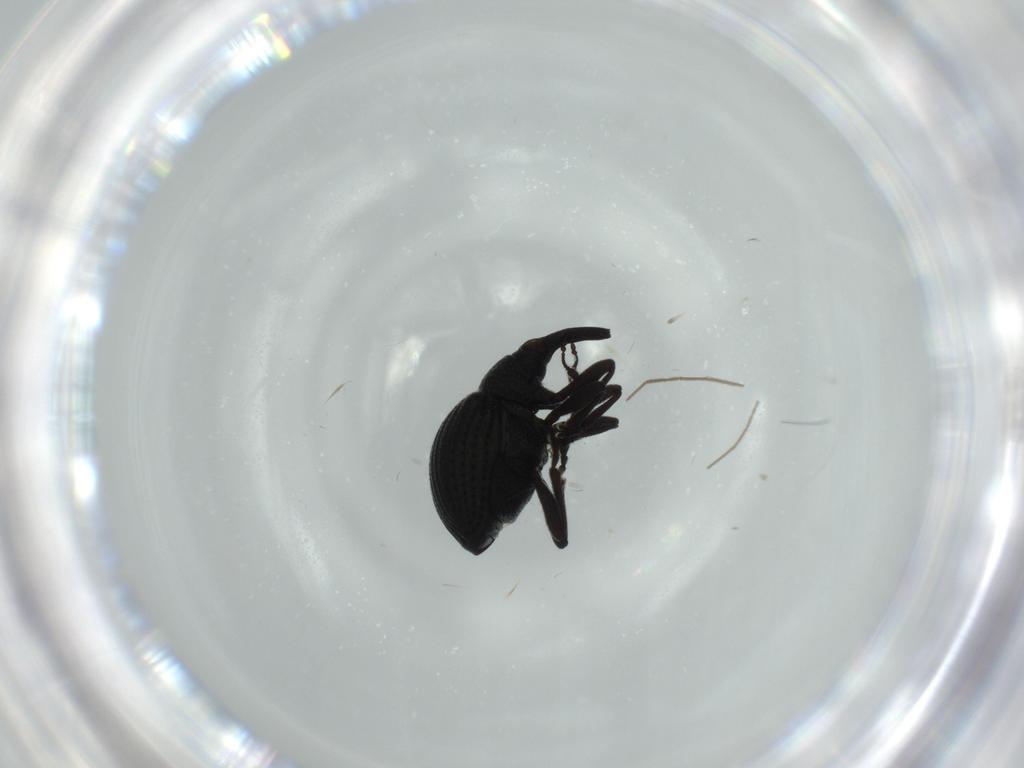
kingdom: Animalia
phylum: Arthropoda
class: Insecta
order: Coleoptera
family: Brentidae
